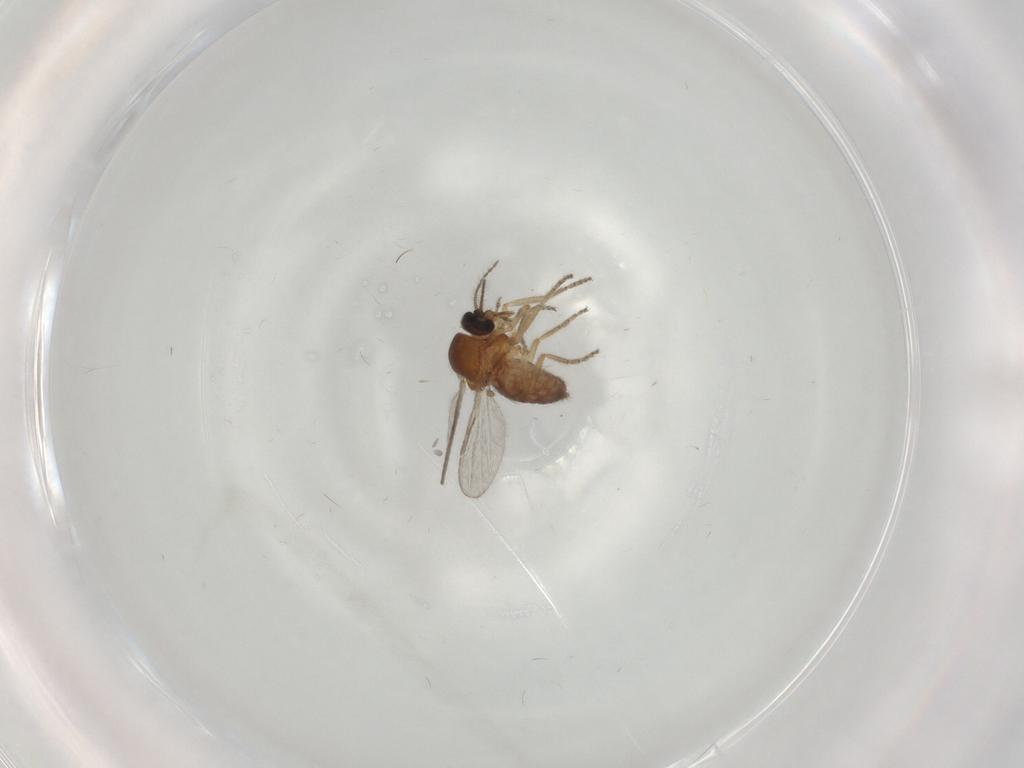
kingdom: Animalia
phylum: Arthropoda
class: Insecta
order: Diptera
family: Ceratopogonidae
